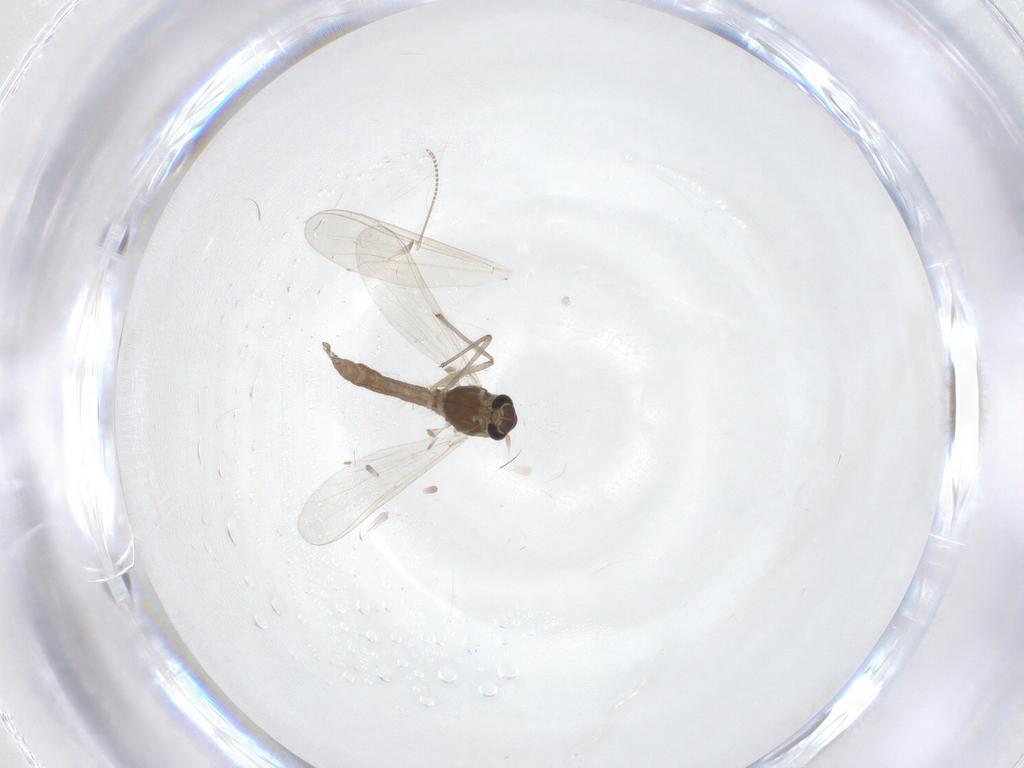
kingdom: Animalia
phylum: Arthropoda
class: Insecta
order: Diptera
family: Chironomidae
